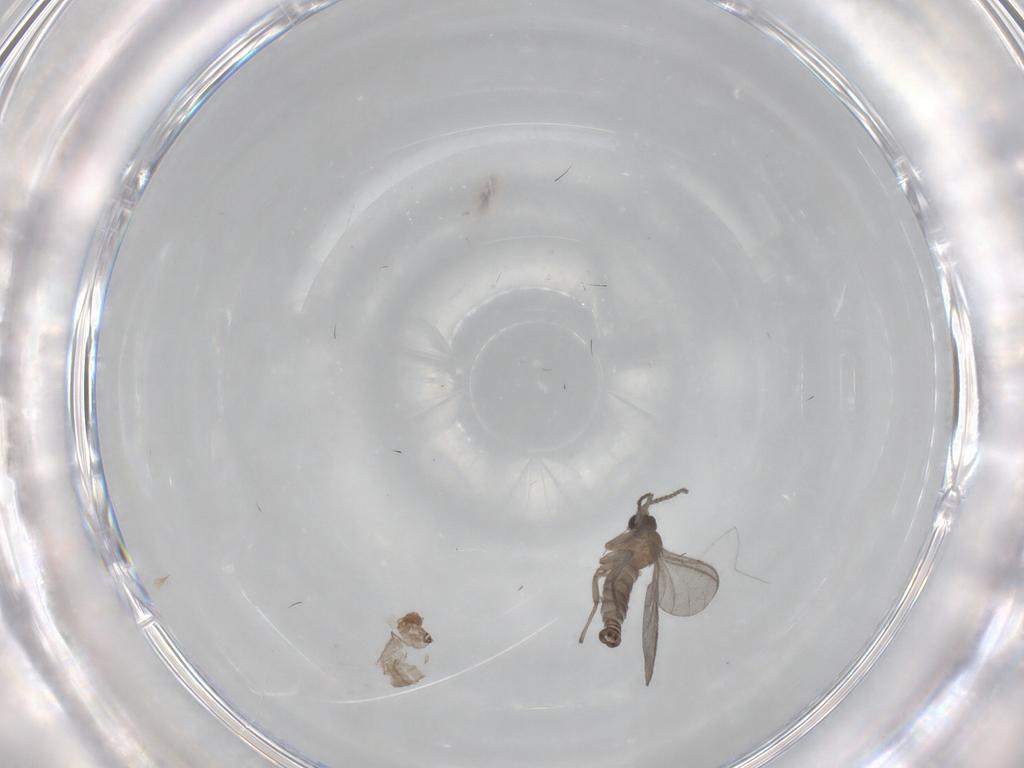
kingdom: Animalia
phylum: Arthropoda
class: Insecta
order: Diptera
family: Sciaridae
